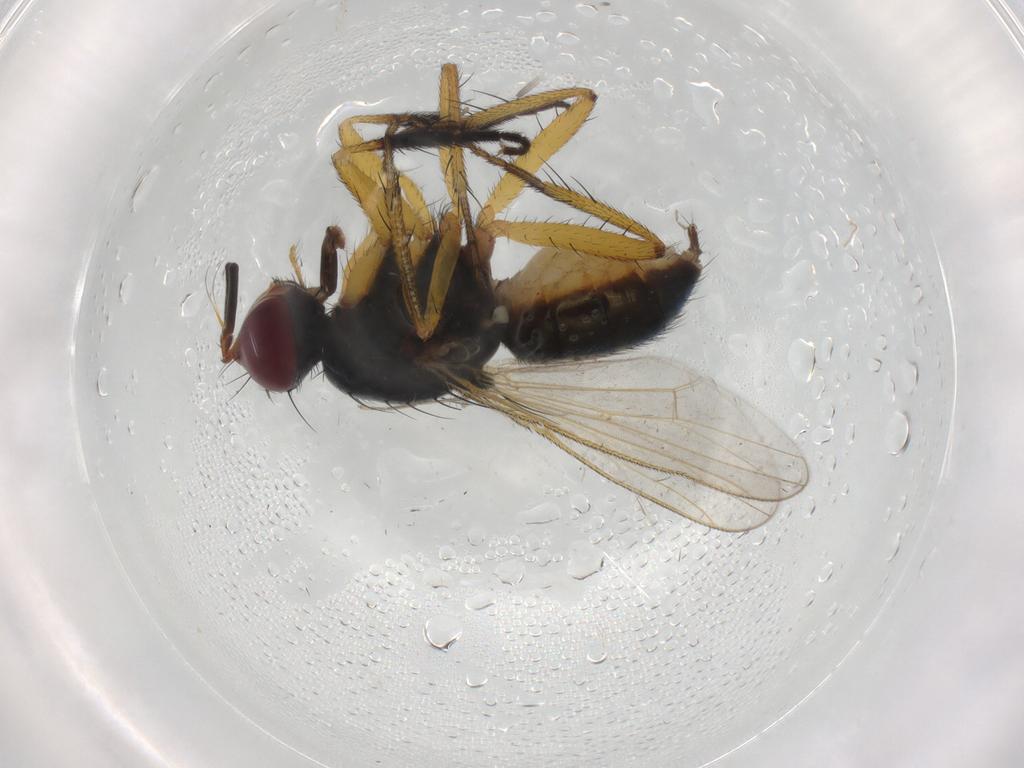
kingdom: Animalia
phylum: Arthropoda
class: Insecta
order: Diptera
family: Muscidae
